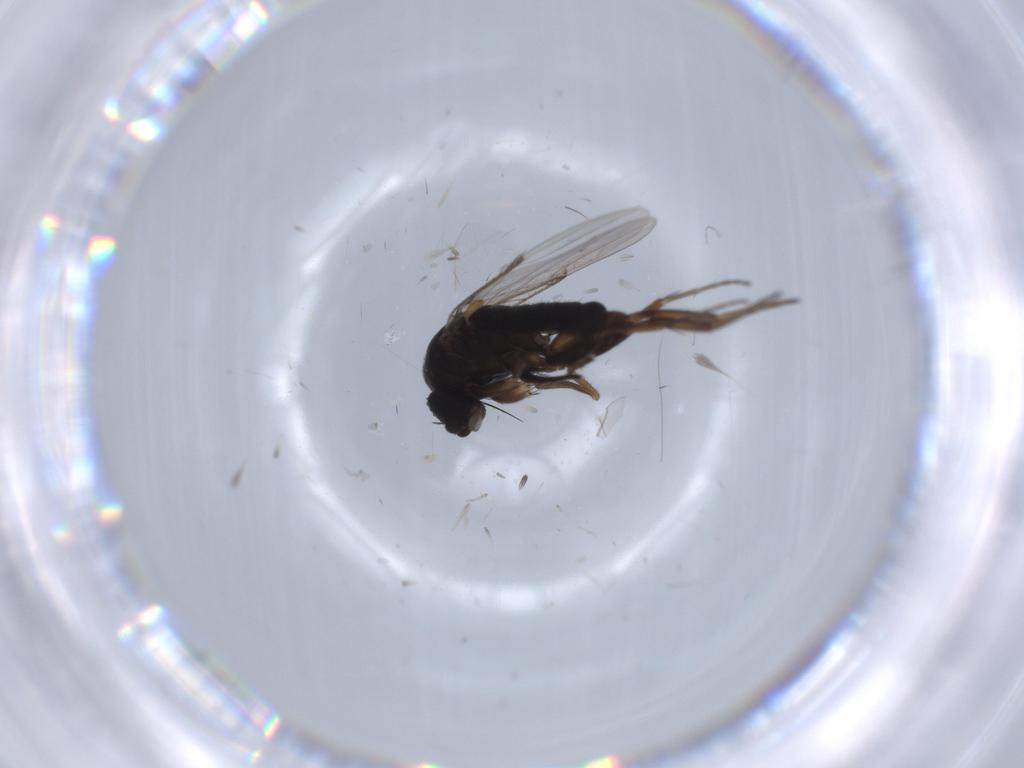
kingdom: Animalia
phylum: Arthropoda
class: Insecta
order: Diptera
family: Phoridae
